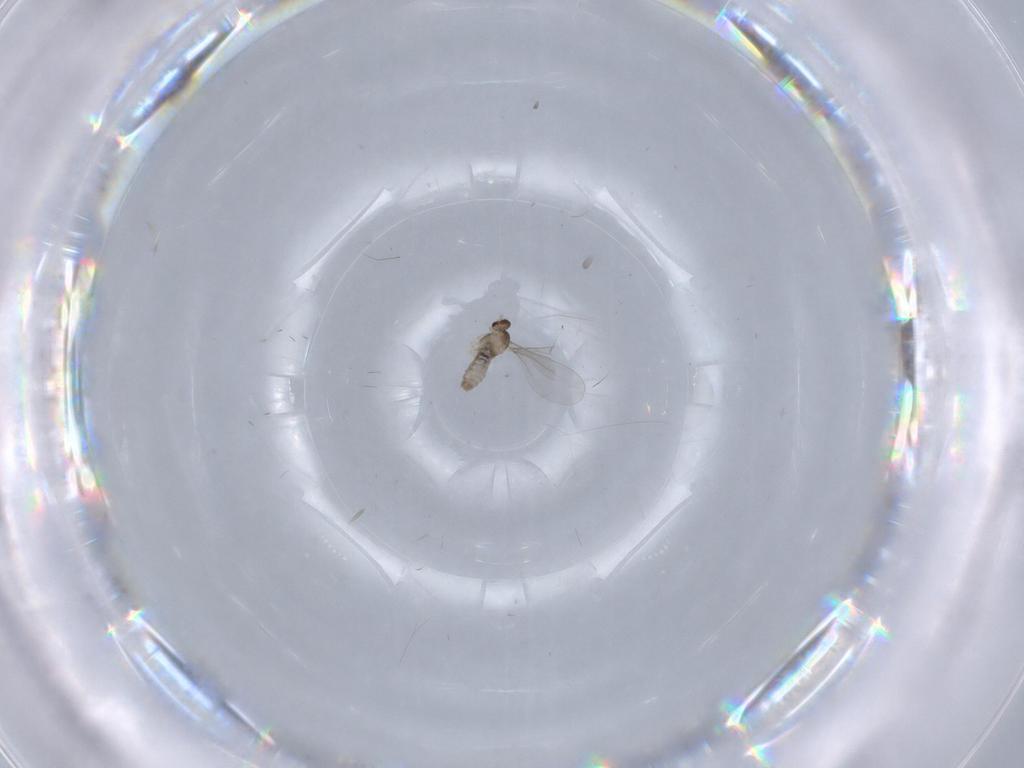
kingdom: Animalia
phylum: Arthropoda
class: Insecta
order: Diptera
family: Cecidomyiidae
